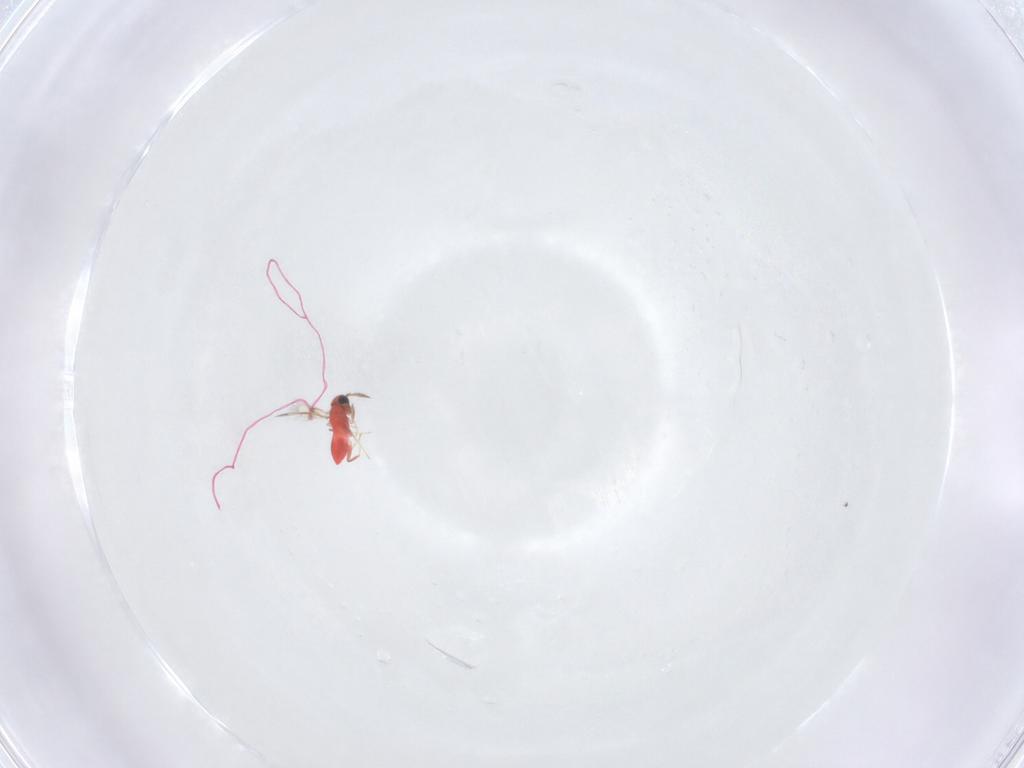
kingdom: Animalia
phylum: Arthropoda
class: Insecta
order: Hymenoptera
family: Trichogrammatidae
